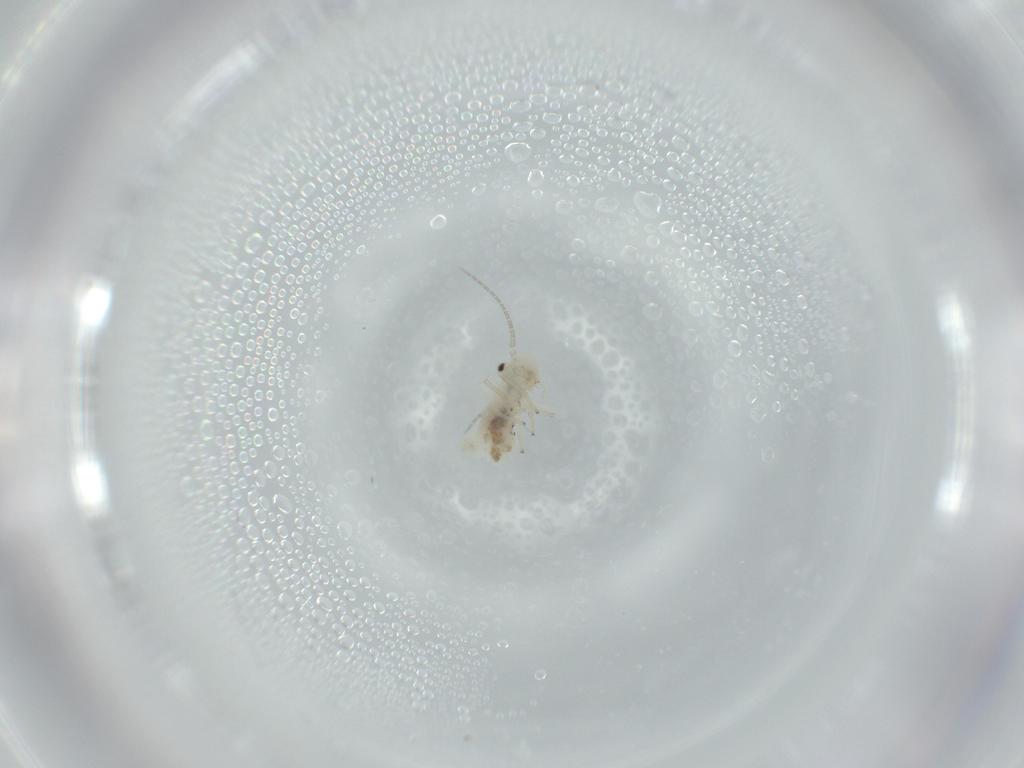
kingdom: Animalia
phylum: Arthropoda
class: Insecta
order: Psocodea
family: Caeciliusidae
